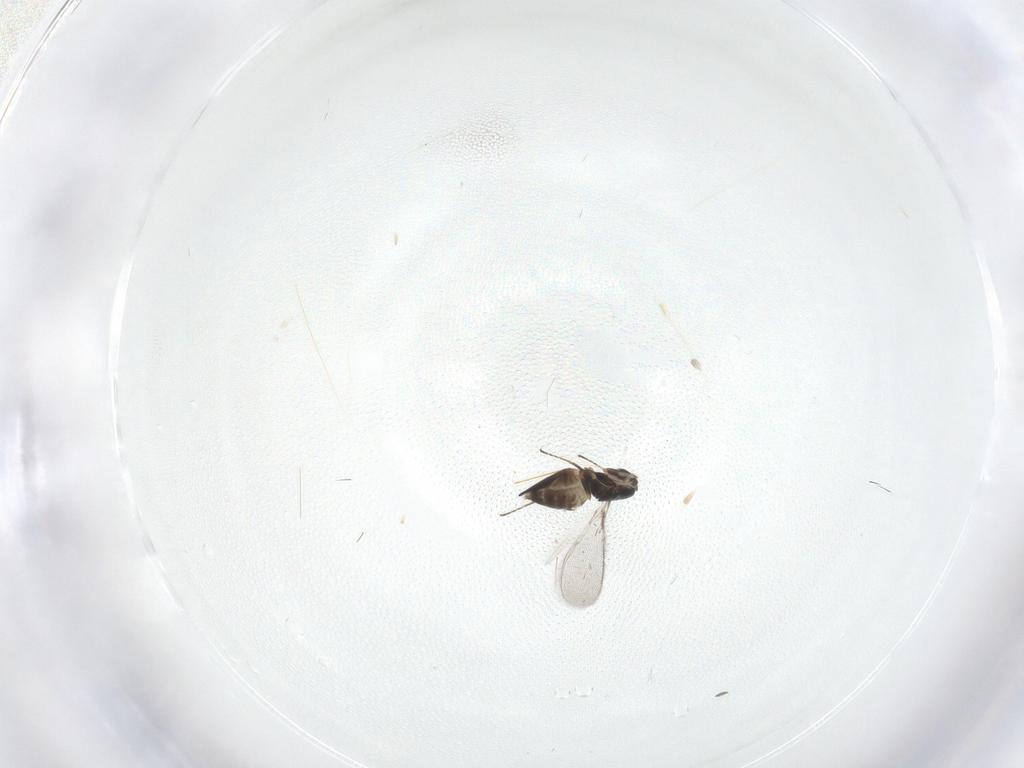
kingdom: Animalia
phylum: Arthropoda
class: Insecta
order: Hymenoptera
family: Mymaridae
